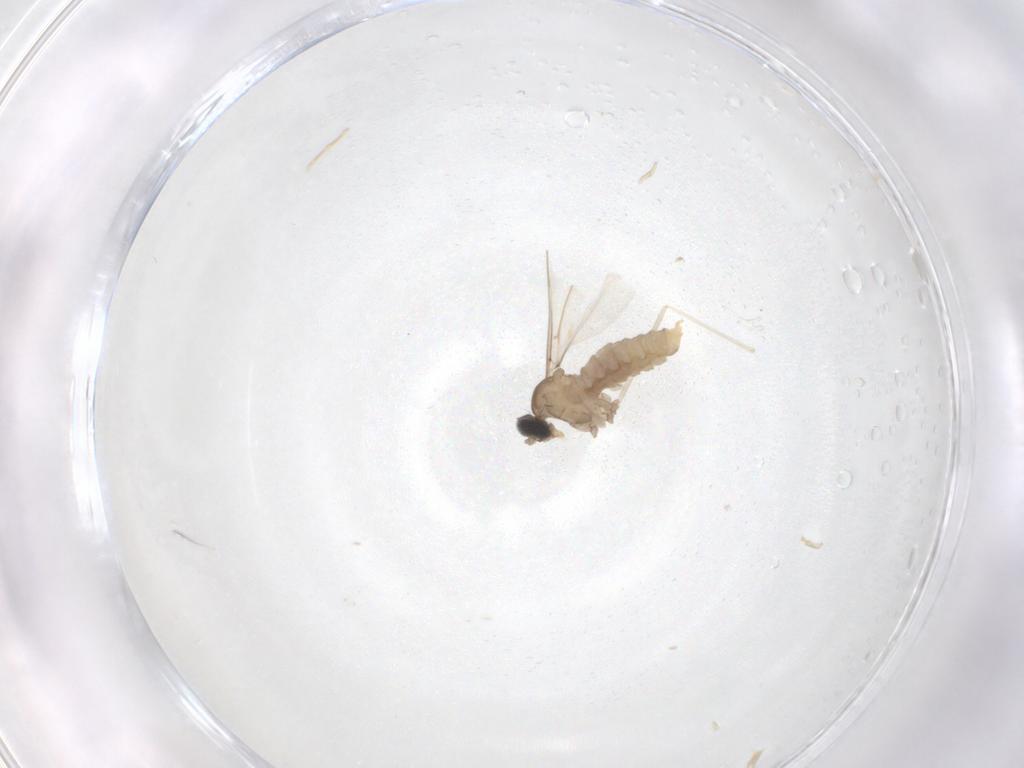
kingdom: Animalia
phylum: Arthropoda
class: Insecta
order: Diptera
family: Cecidomyiidae
